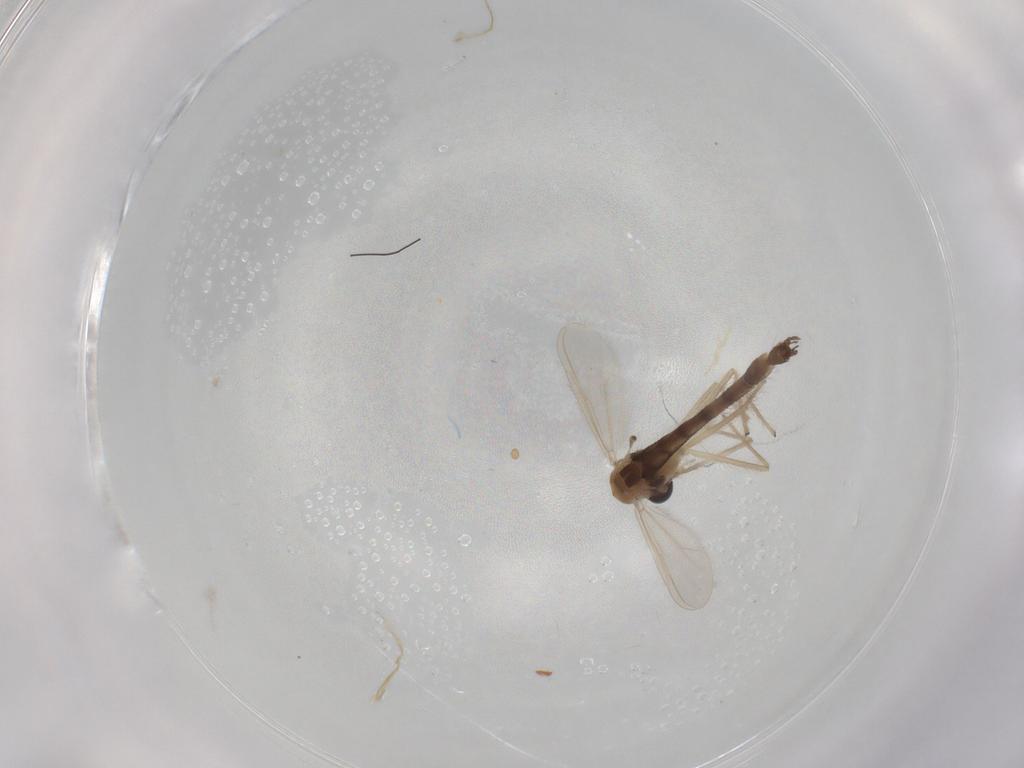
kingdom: Animalia
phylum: Arthropoda
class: Insecta
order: Diptera
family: Chironomidae
